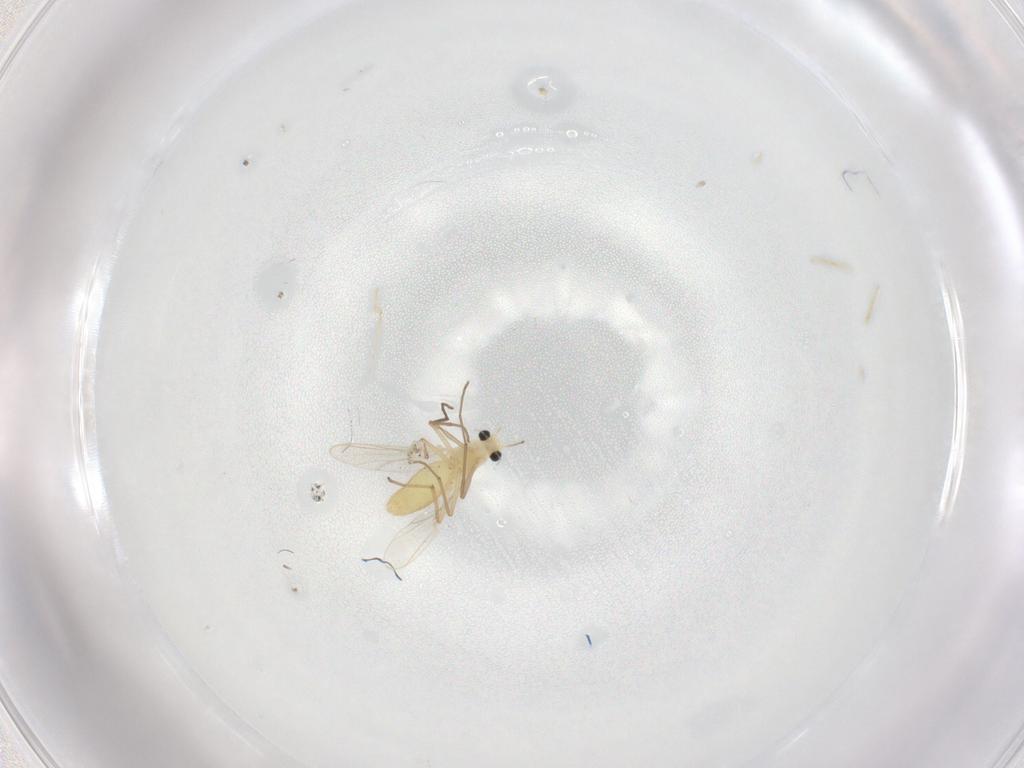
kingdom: Animalia
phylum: Arthropoda
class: Insecta
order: Diptera
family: Chironomidae
